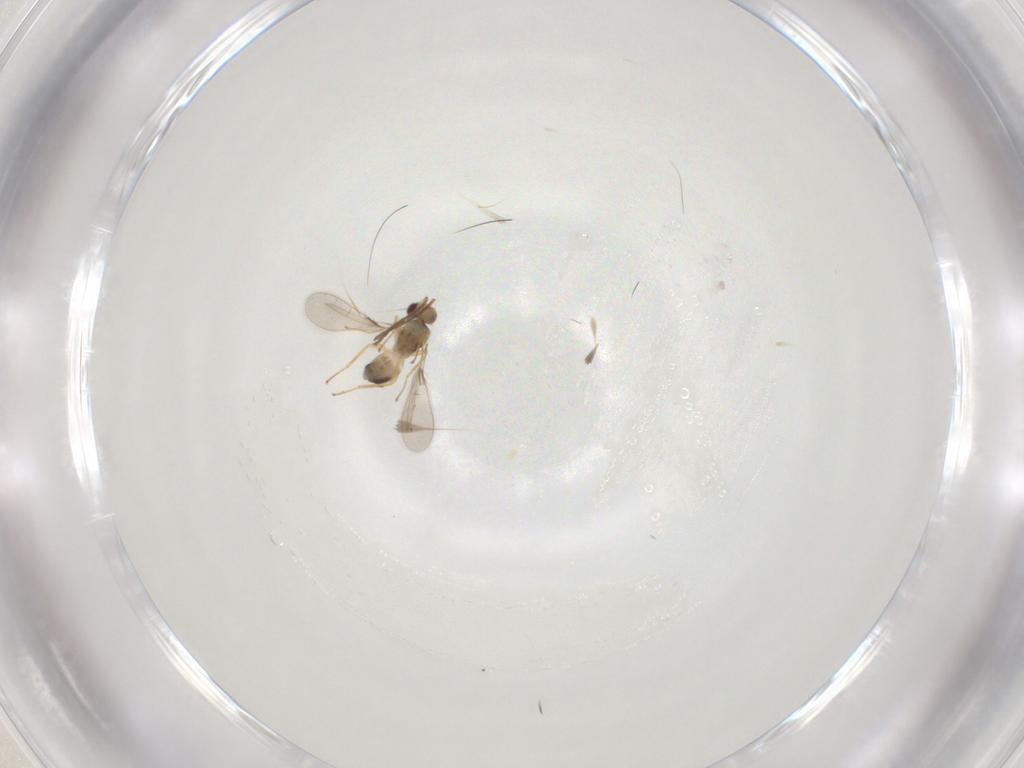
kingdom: Animalia
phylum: Arthropoda
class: Insecta
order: Hymenoptera
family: Mymaridae
